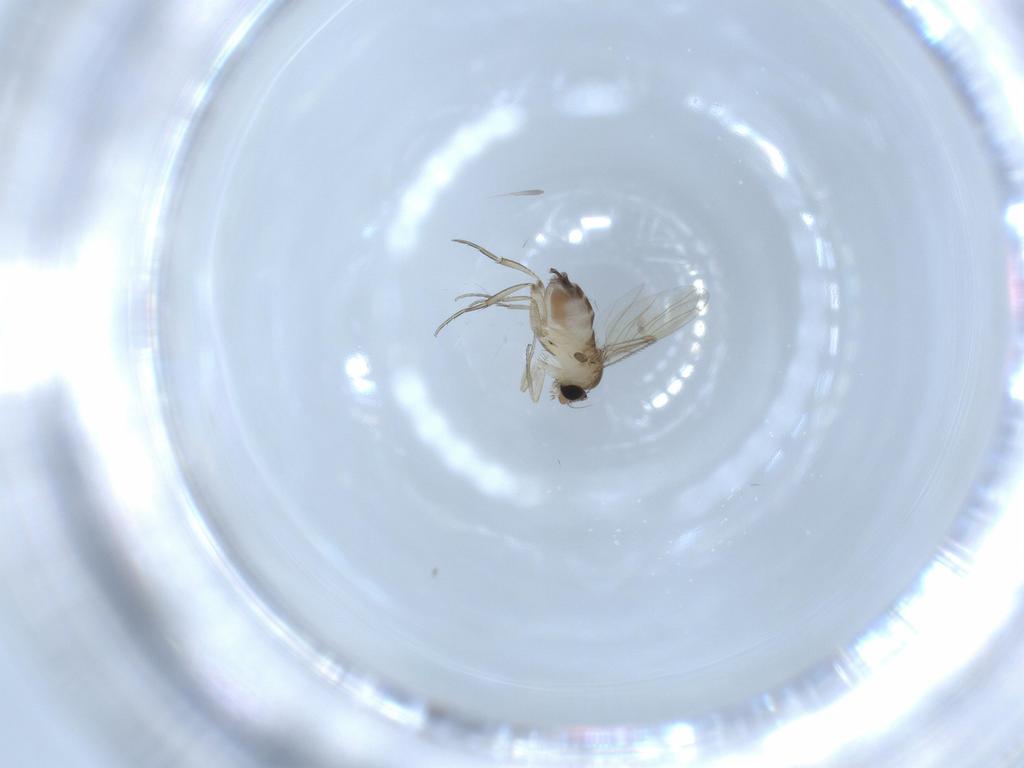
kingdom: Animalia
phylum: Arthropoda
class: Insecta
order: Diptera
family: Phoridae
